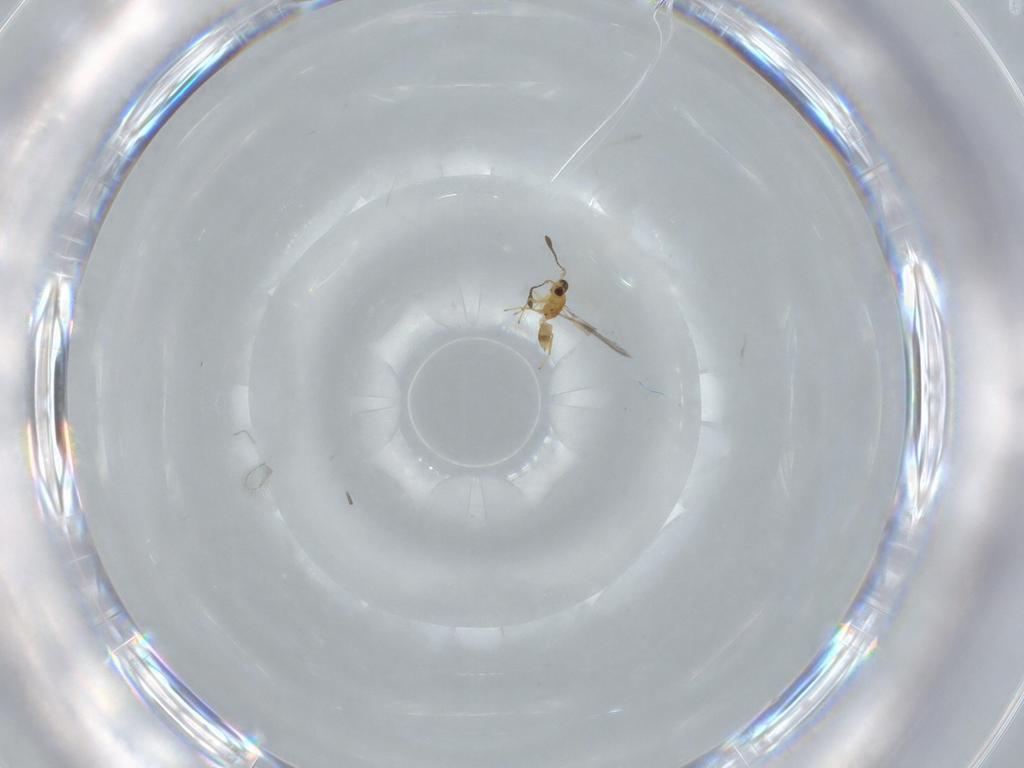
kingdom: Animalia
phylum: Arthropoda
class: Insecta
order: Hymenoptera
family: Mymaridae
